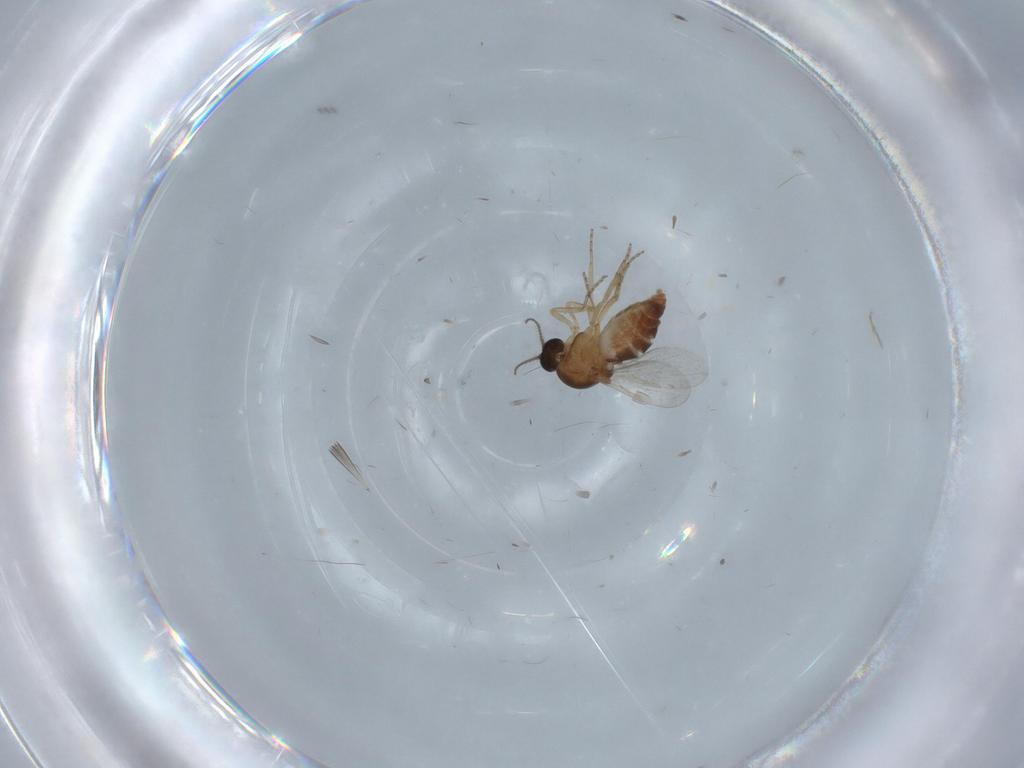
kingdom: Animalia
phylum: Arthropoda
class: Insecta
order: Diptera
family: Ceratopogonidae
